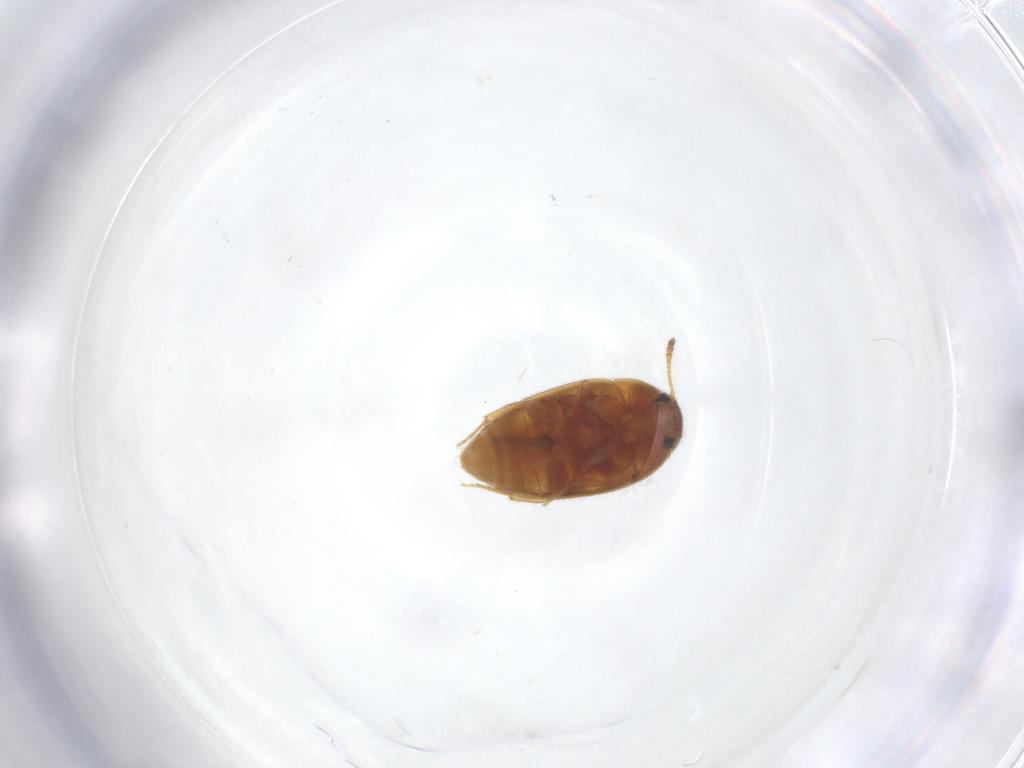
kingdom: Animalia
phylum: Arthropoda
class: Insecta
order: Coleoptera
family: Mycetophagidae
